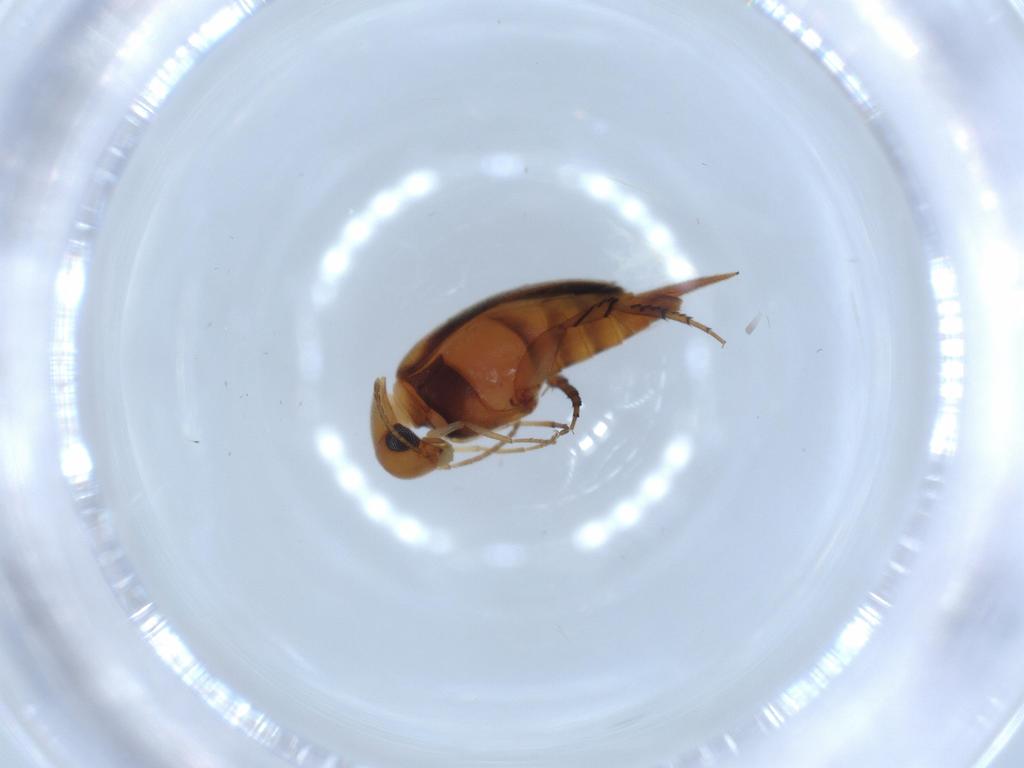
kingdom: Animalia
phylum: Arthropoda
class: Insecta
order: Coleoptera
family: Mordellidae
